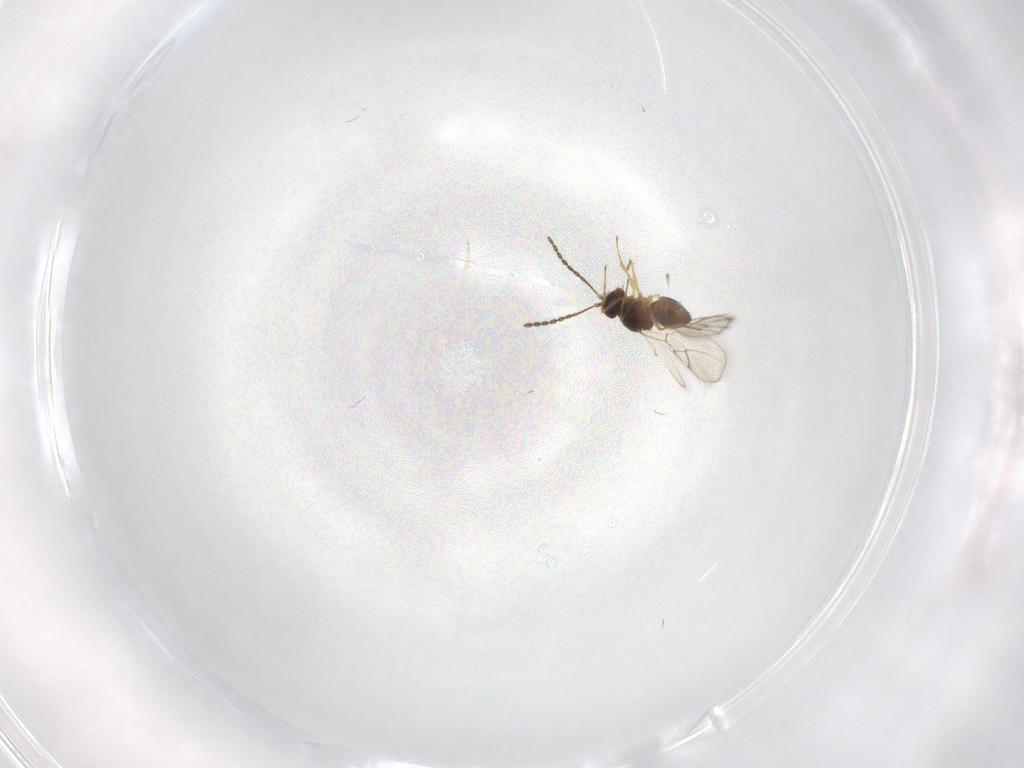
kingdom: Animalia
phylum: Arthropoda
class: Insecta
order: Hymenoptera
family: Figitidae
